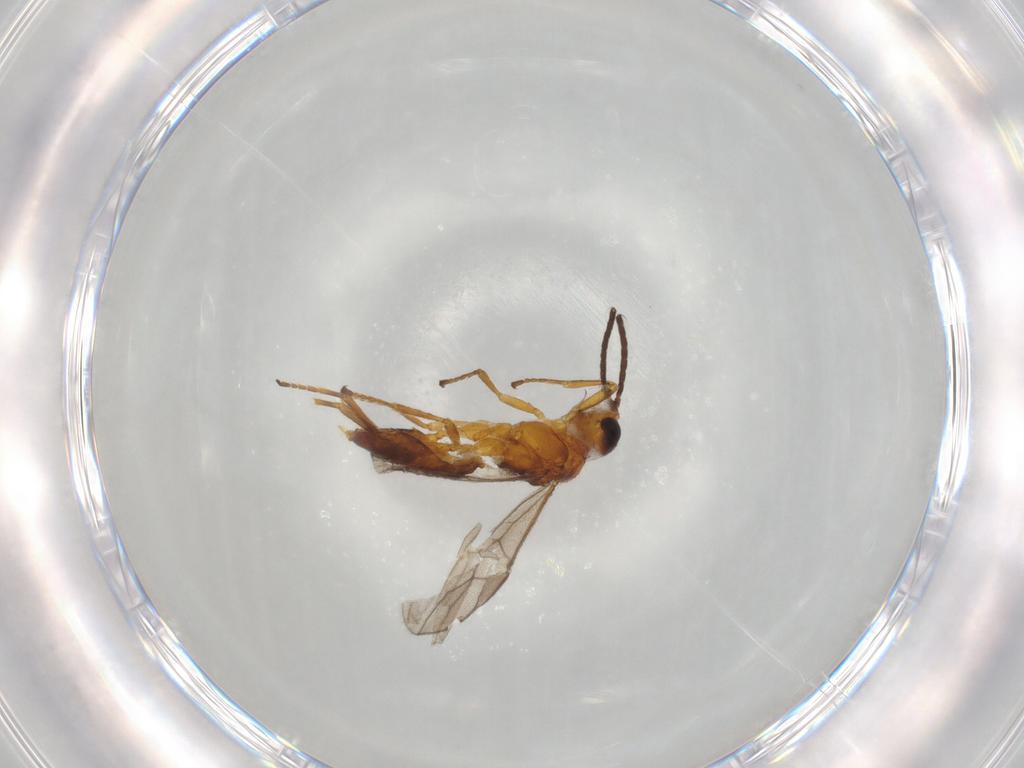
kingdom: Animalia
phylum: Arthropoda
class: Insecta
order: Hymenoptera
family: Braconidae
